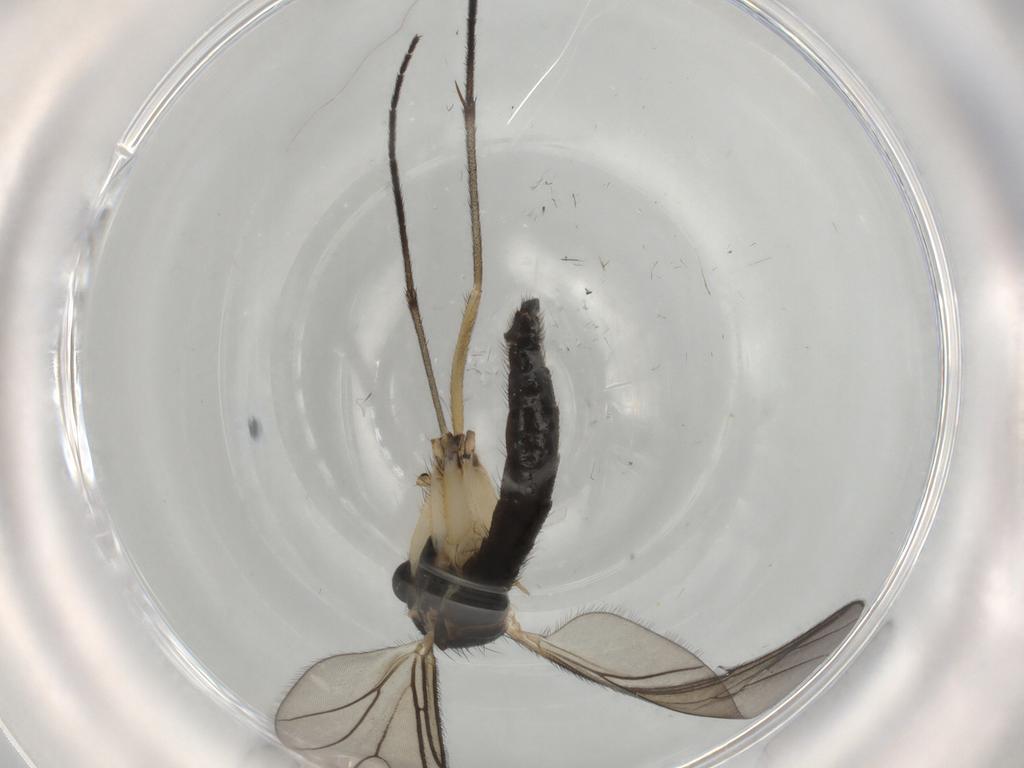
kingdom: Animalia
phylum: Arthropoda
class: Insecta
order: Diptera
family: Sciaridae
